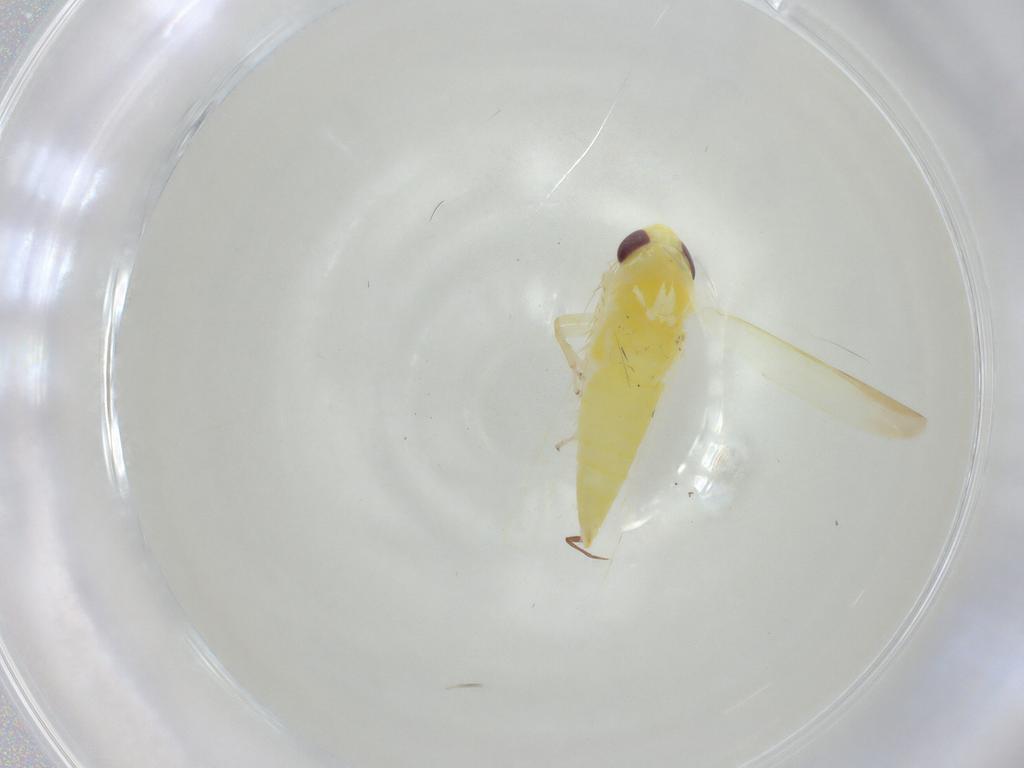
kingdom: Animalia
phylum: Arthropoda
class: Insecta
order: Hemiptera
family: Cicadellidae
